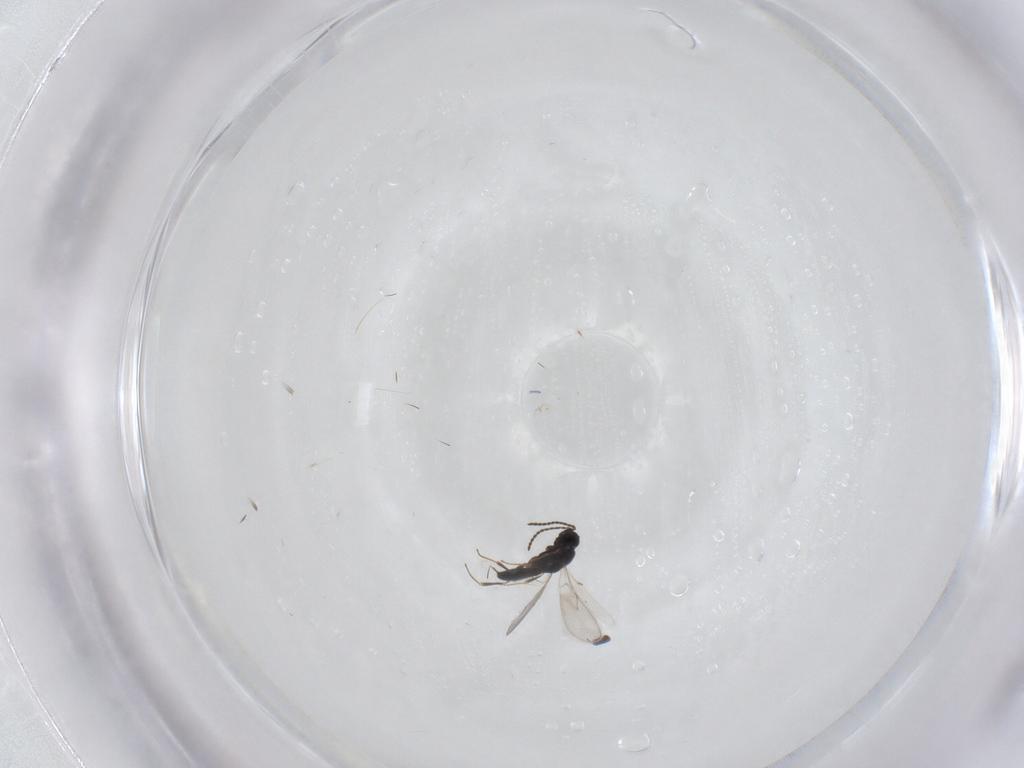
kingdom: Animalia
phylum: Arthropoda
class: Insecta
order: Hymenoptera
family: Scelionidae
